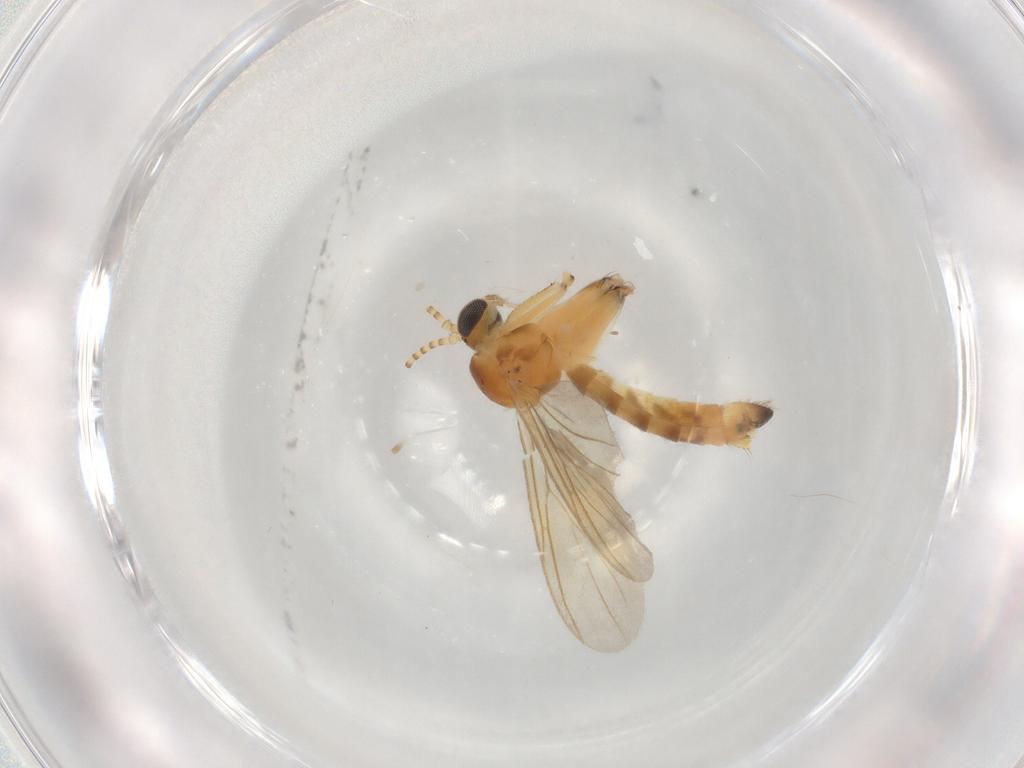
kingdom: Animalia
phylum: Arthropoda
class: Insecta
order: Diptera
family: Mycetophilidae
